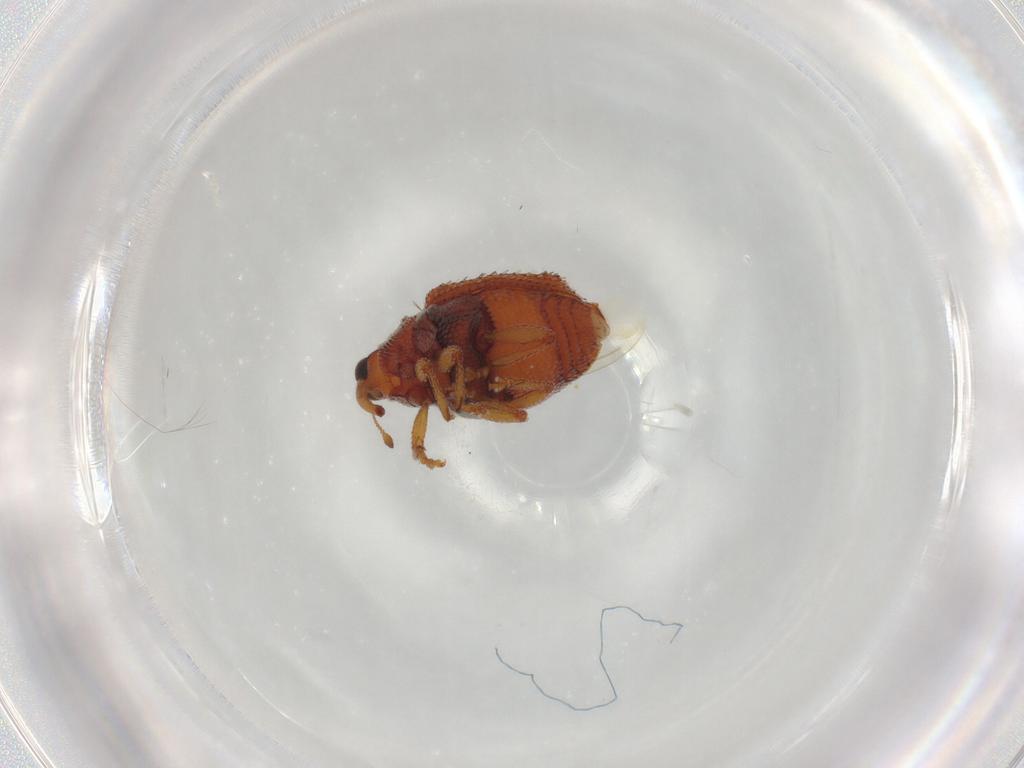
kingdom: Animalia
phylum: Arthropoda
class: Insecta
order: Coleoptera
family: Curculionidae
